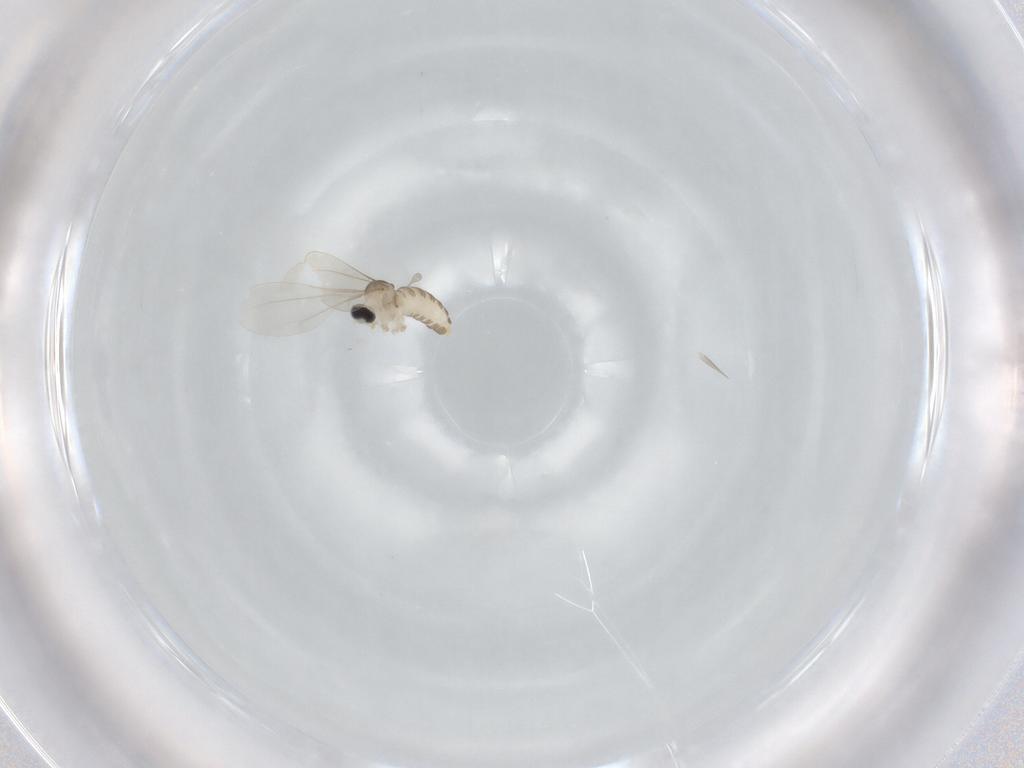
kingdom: Animalia
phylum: Arthropoda
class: Insecta
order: Diptera
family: Cecidomyiidae
